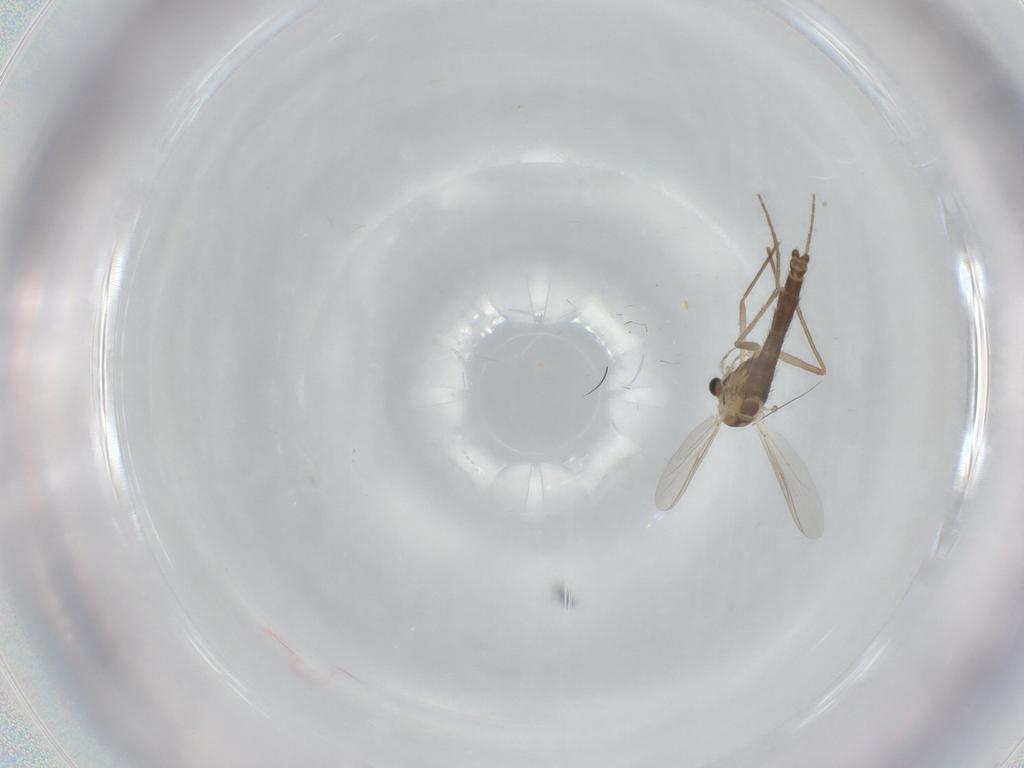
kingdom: Animalia
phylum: Arthropoda
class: Insecta
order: Diptera
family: Chironomidae
